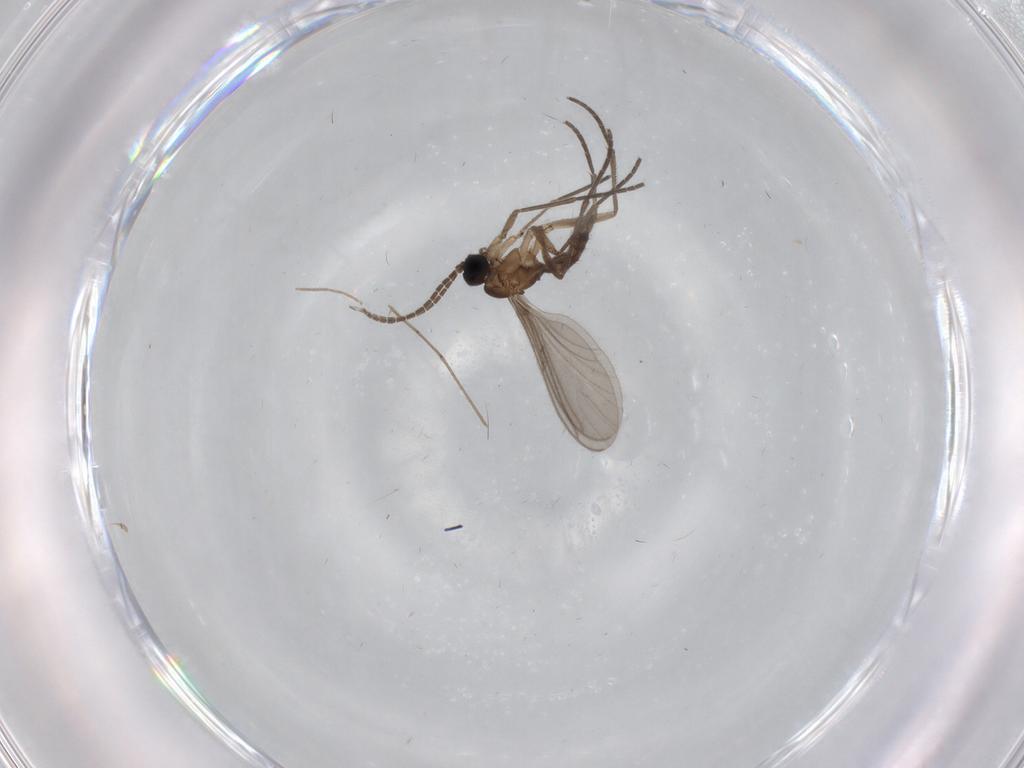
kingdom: Animalia
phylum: Arthropoda
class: Insecta
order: Diptera
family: Sciaridae
